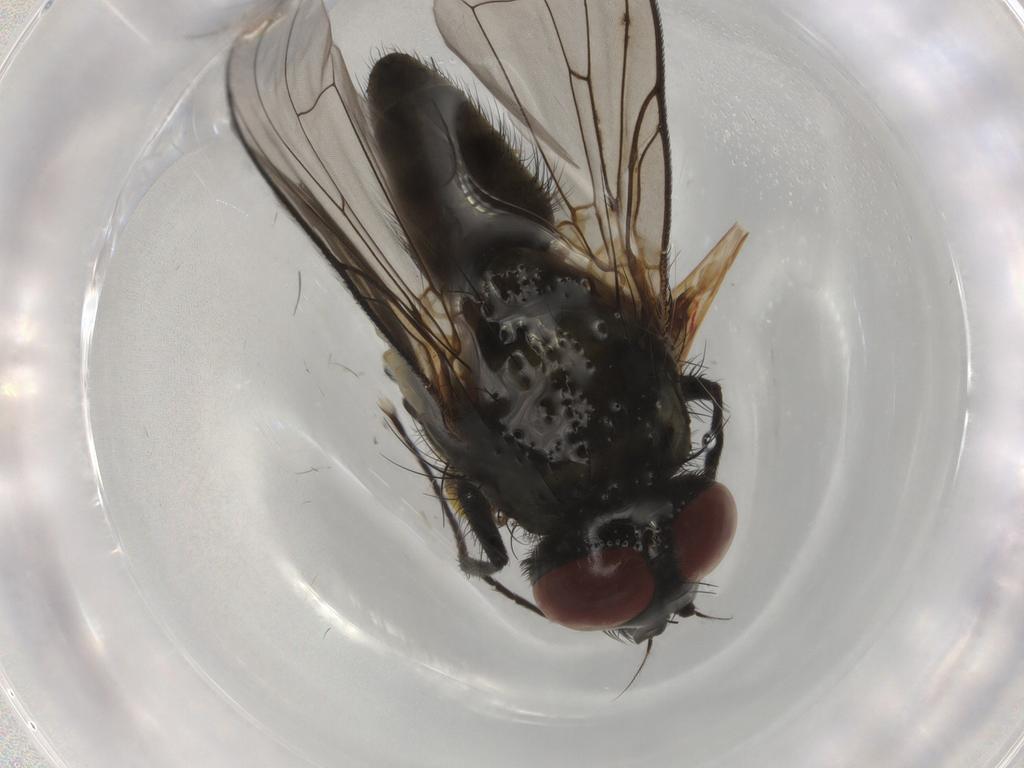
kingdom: Animalia
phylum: Arthropoda
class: Insecta
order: Diptera
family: Muscidae
